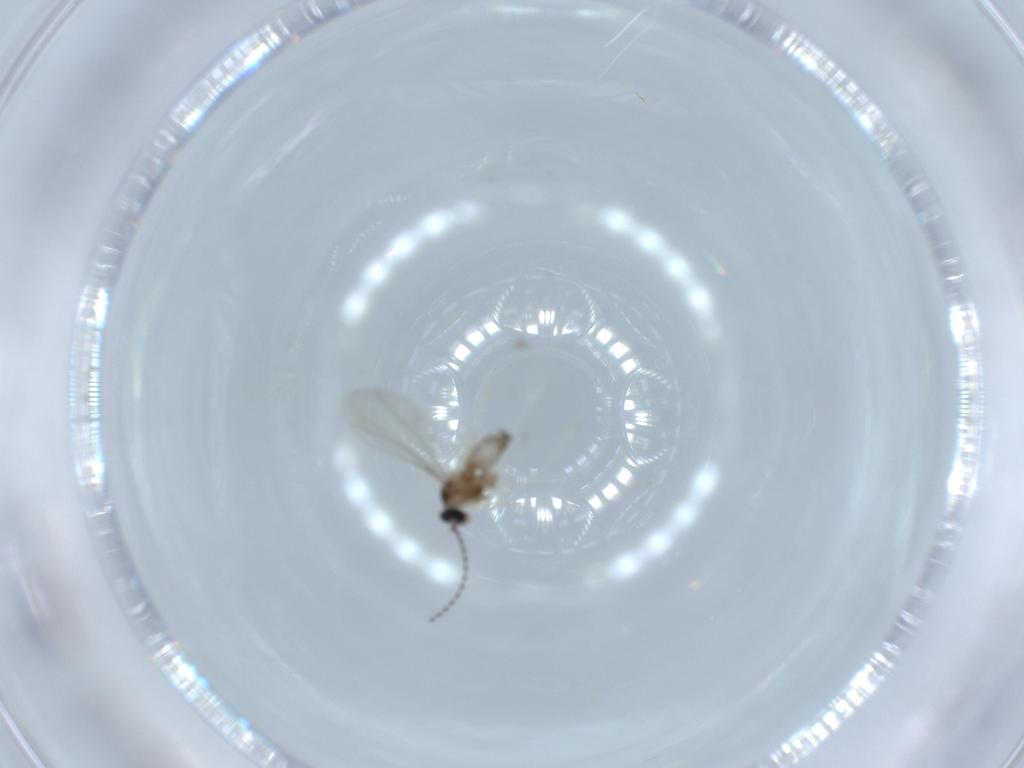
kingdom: Animalia
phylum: Arthropoda
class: Insecta
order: Diptera
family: Cecidomyiidae
